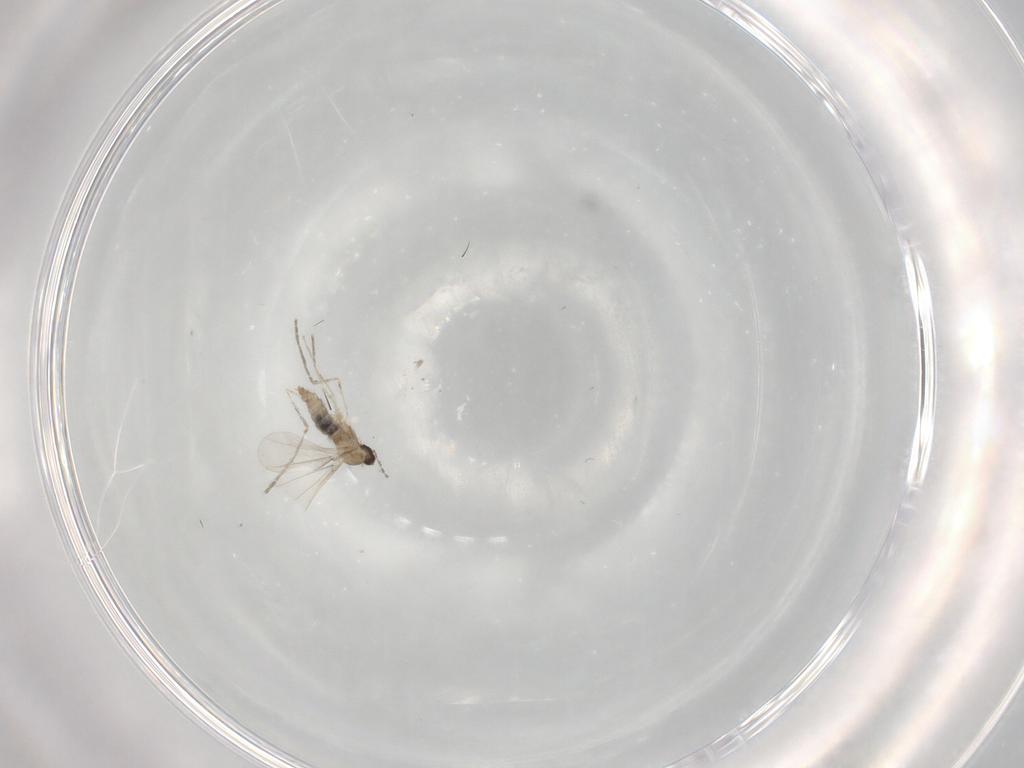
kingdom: Animalia
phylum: Arthropoda
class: Insecta
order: Diptera
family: Cecidomyiidae
